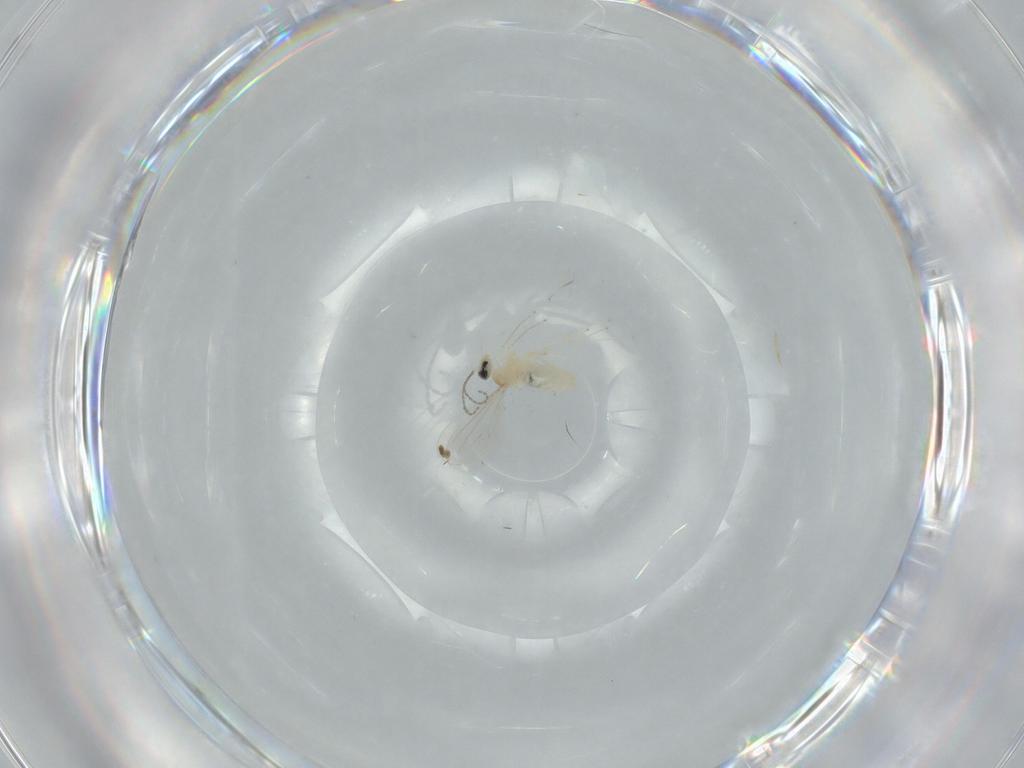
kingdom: Animalia
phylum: Arthropoda
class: Insecta
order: Diptera
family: Cecidomyiidae
